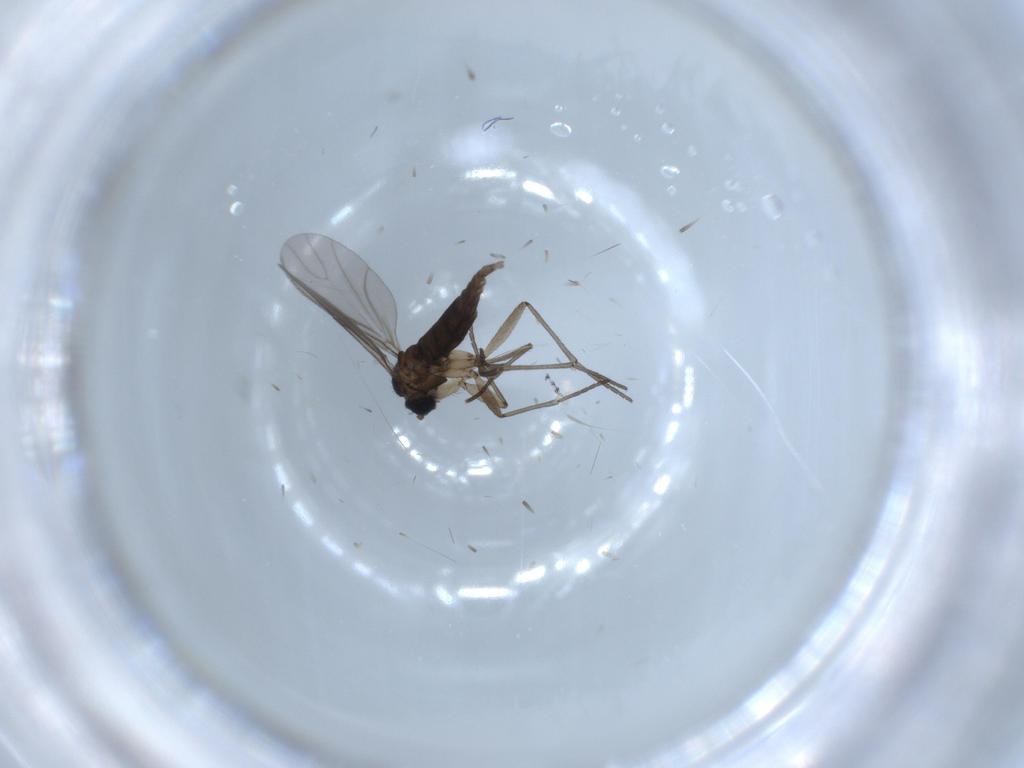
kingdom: Animalia
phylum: Arthropoda
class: Insecta
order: Diptera
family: Sciaridae
